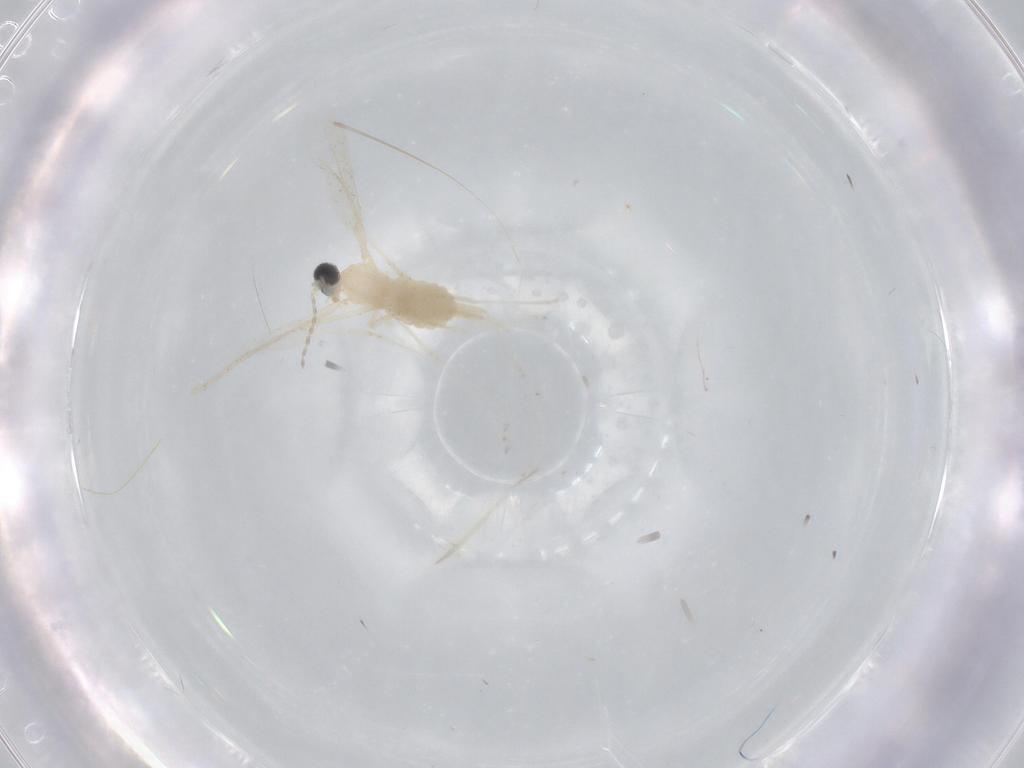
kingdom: Animalia
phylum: Arthropoda
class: Insecta
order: Diptera
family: Cecidomyiidae
